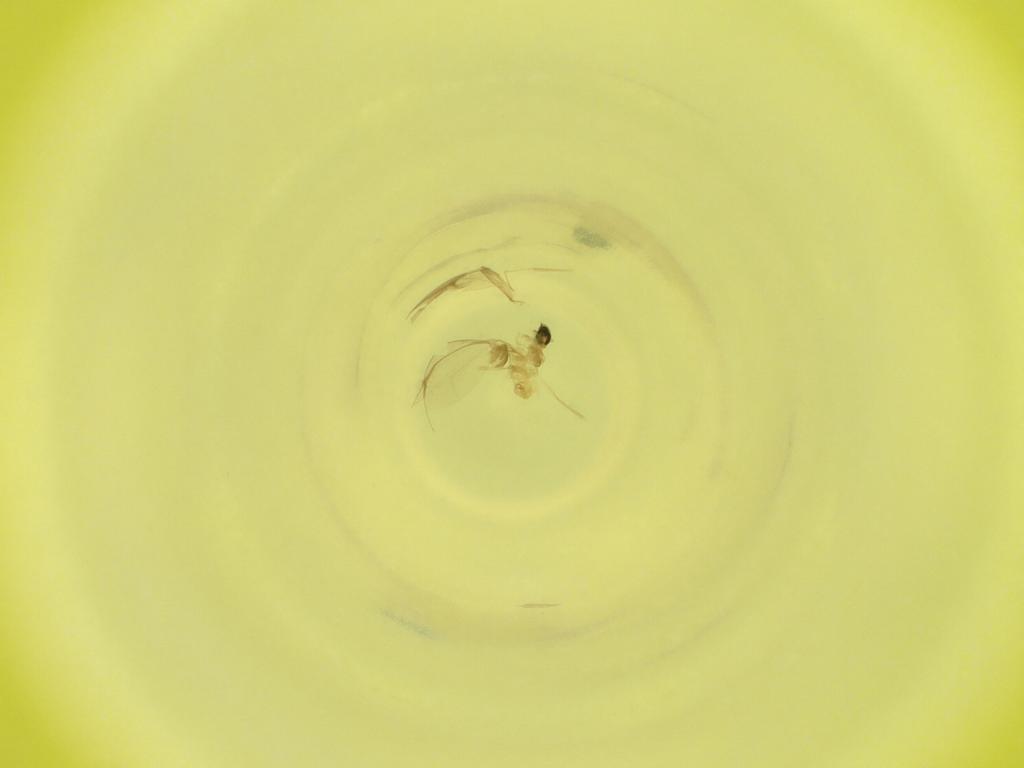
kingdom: Animalia
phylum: Arthropoda
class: Insecta
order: Diptera
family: Cecidomyiidae
